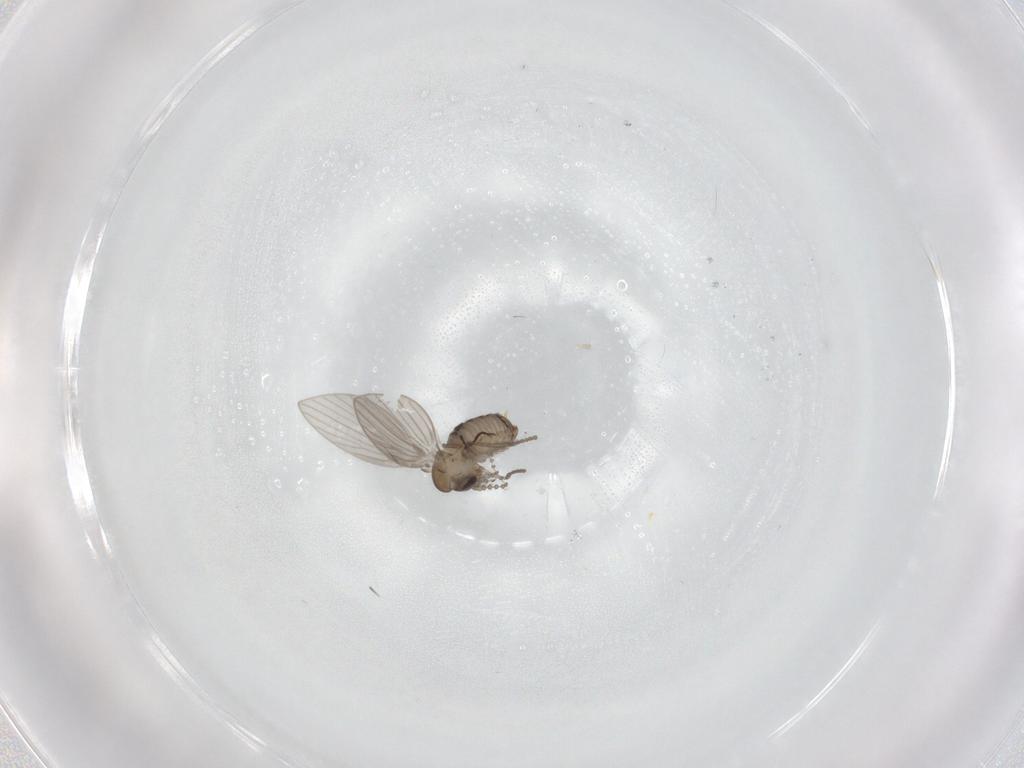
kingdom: Animalia
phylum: Arthropoda
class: Insecta
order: Diptera
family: Psychodidae
